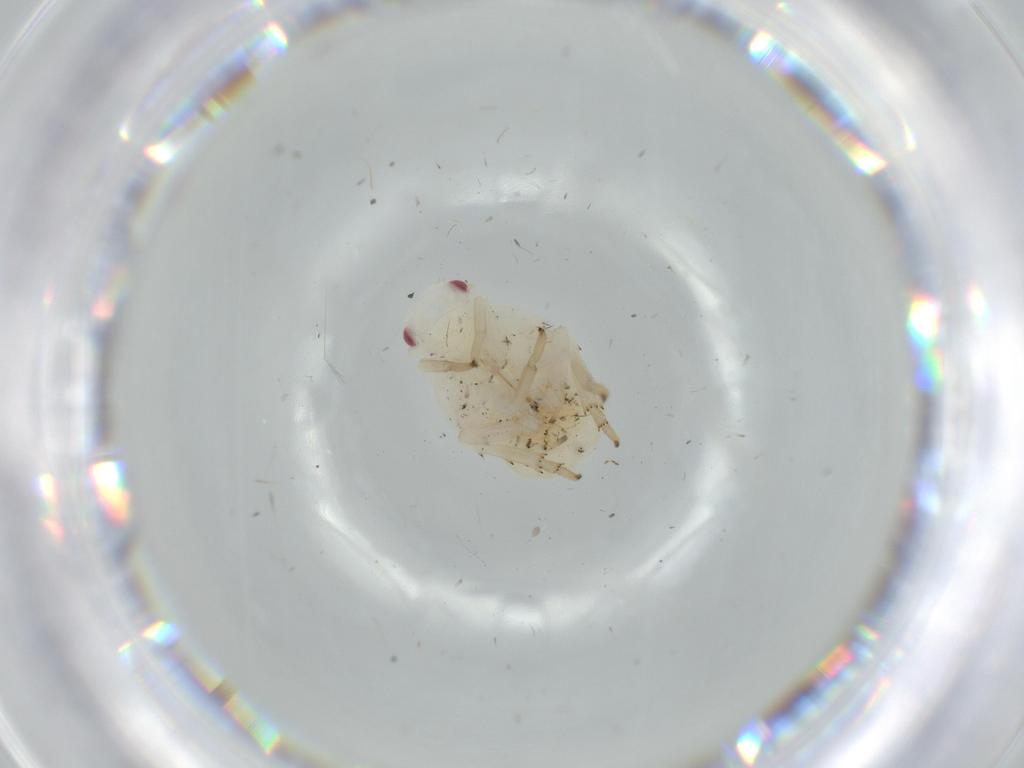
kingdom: Animalia
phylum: Arthropoda
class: Insecta
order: Hemiptera
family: Flatidae
